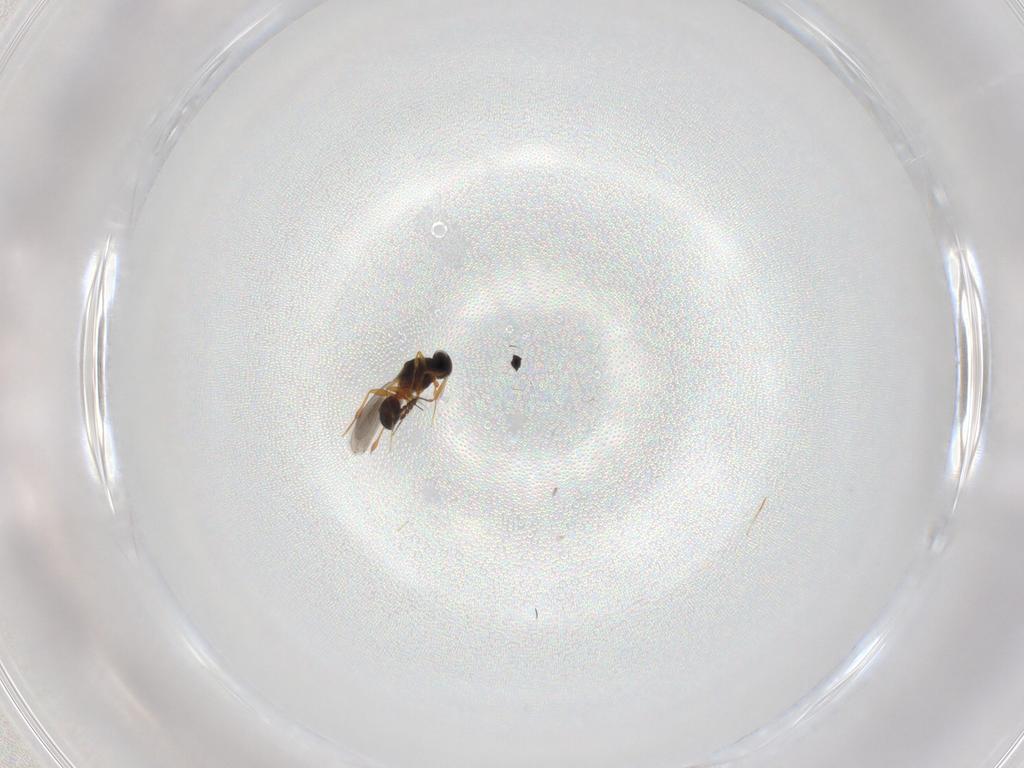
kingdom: Animalia
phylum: Arthropoda
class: Insecta
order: Hymenoptera
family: Platygastridae
